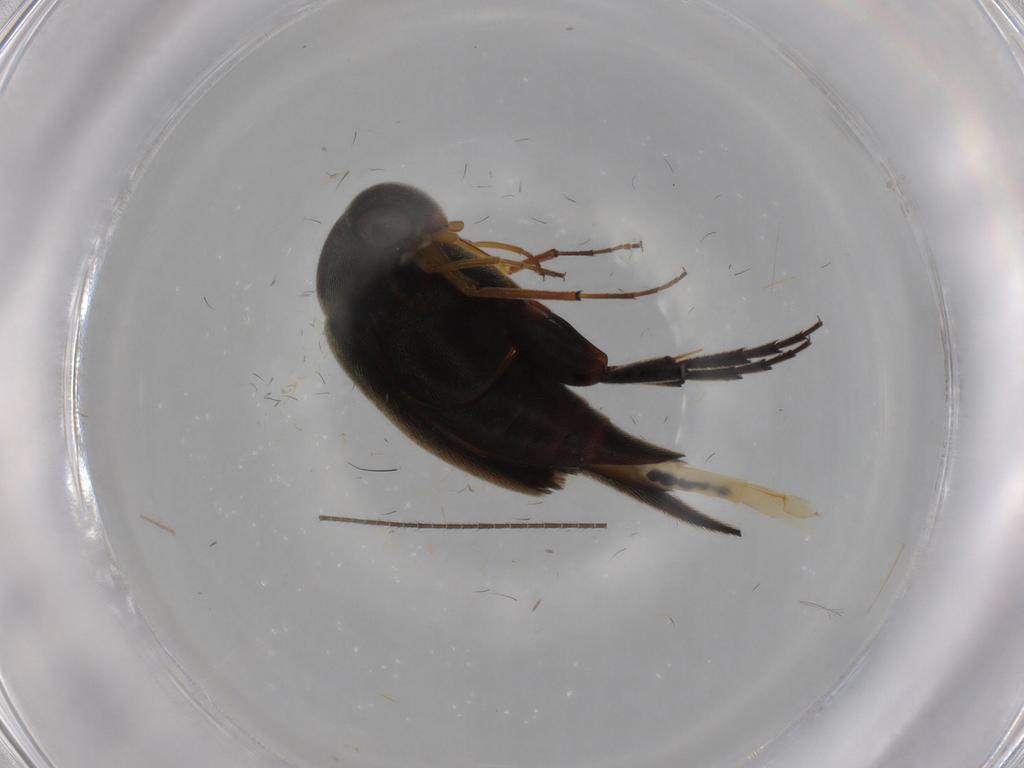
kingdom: Animalia
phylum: Arthropoda
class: Insecta
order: Coleoptera
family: Mordellidae
